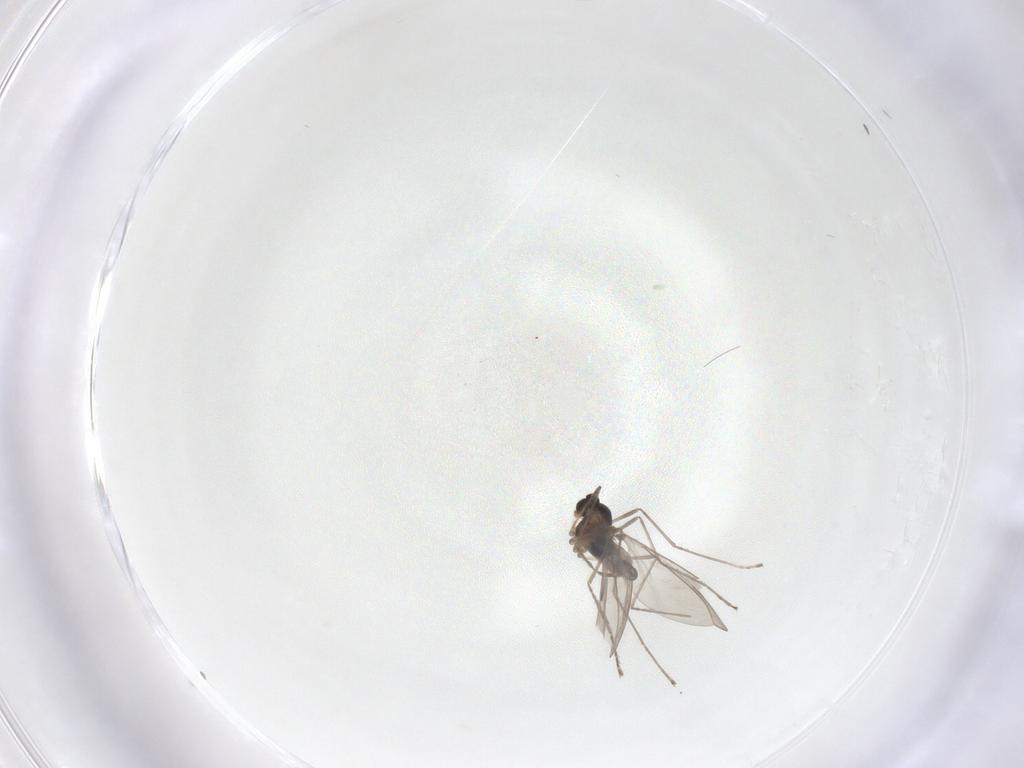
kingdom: Animalia
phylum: Arthropoda
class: Insecta
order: Diptera
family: Cecidomyiidae
